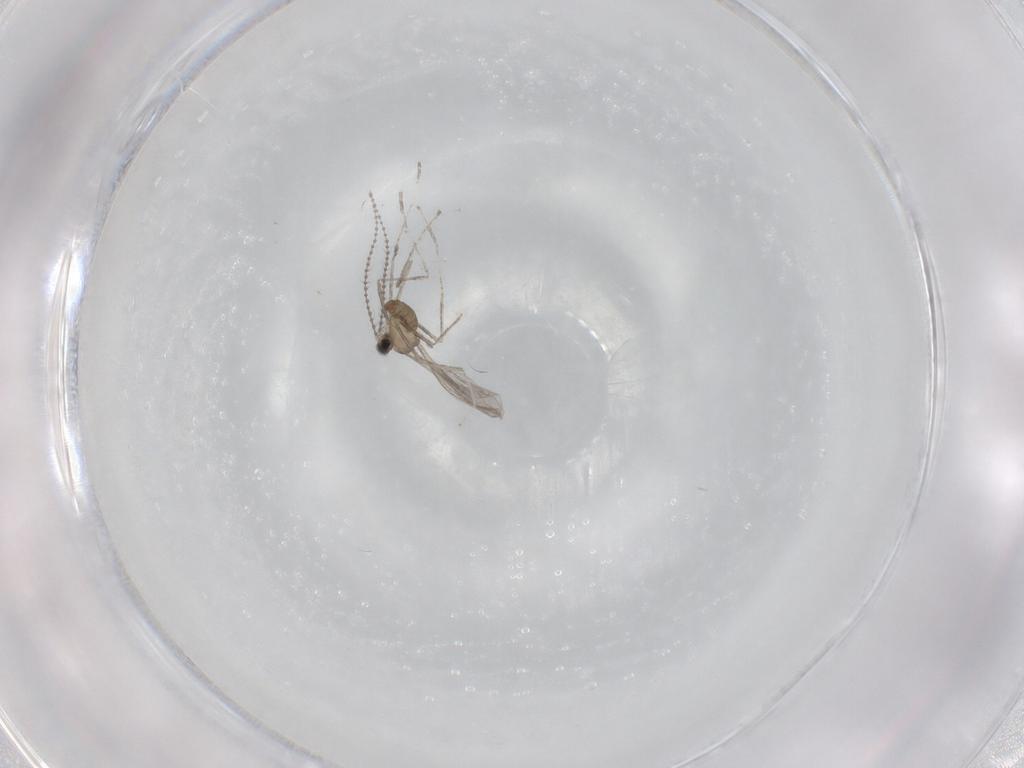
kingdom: Animalia
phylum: Arthropoda
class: Insecta
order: Diptera
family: Cecidomyiidae
